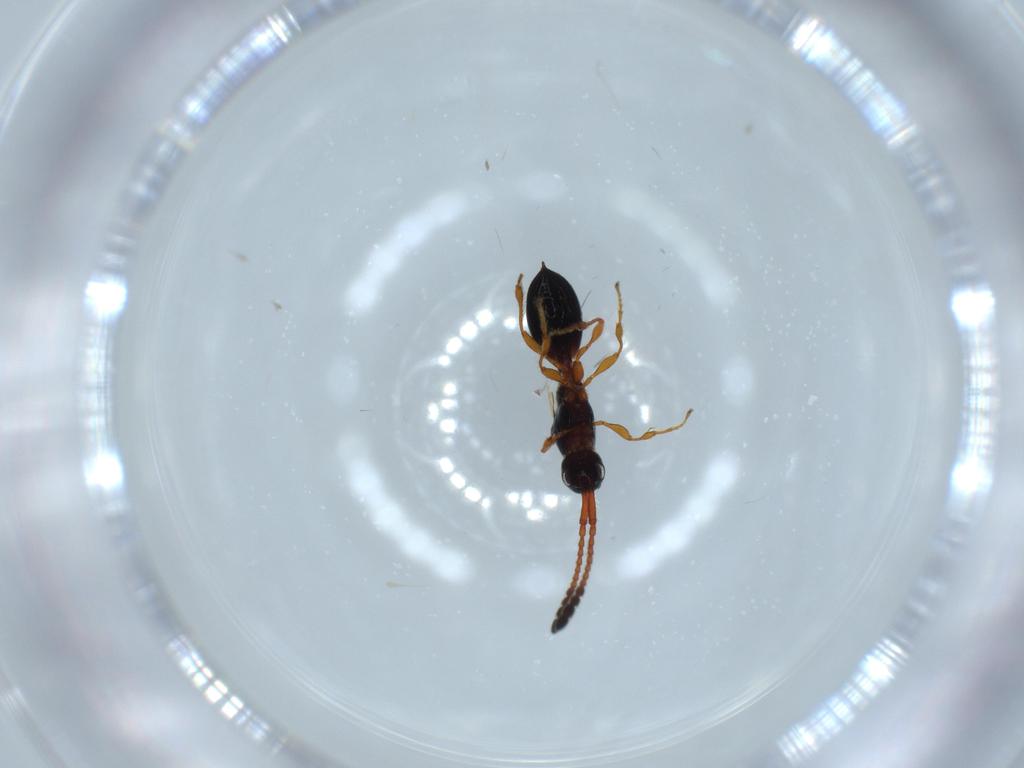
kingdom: Animalia
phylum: Arthropoda
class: Insecta
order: Hymenoptera
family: Diapriidae
